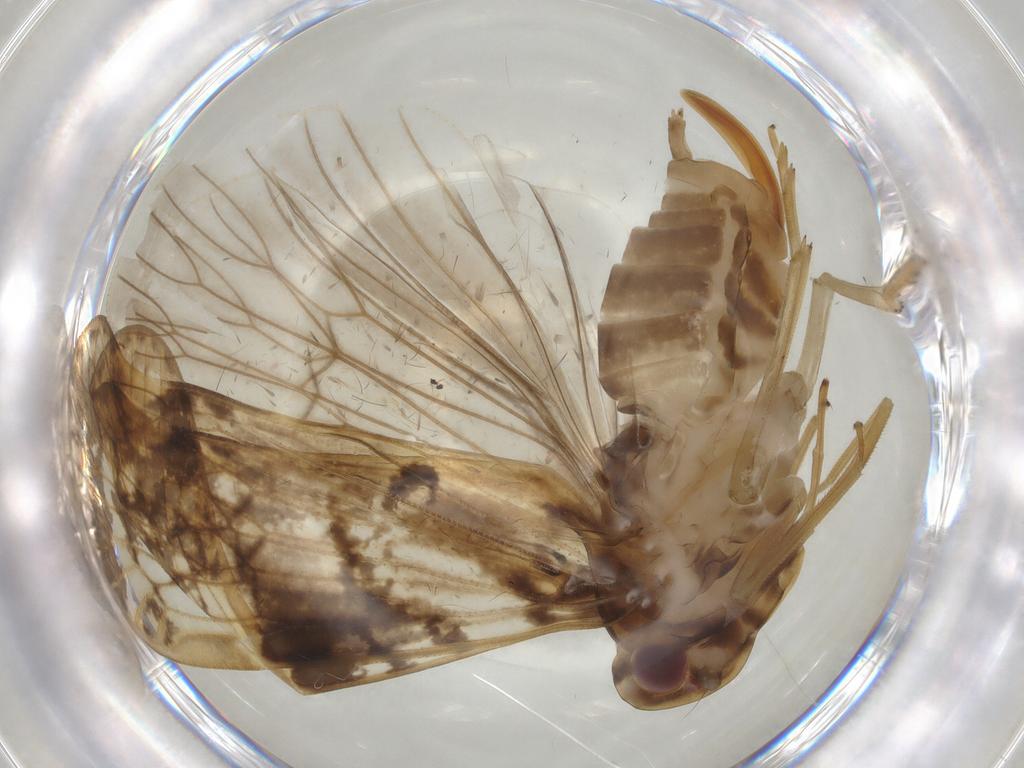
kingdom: Animalia
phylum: Arthropoda
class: Insecta
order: Hemiptera
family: Cixiidae
